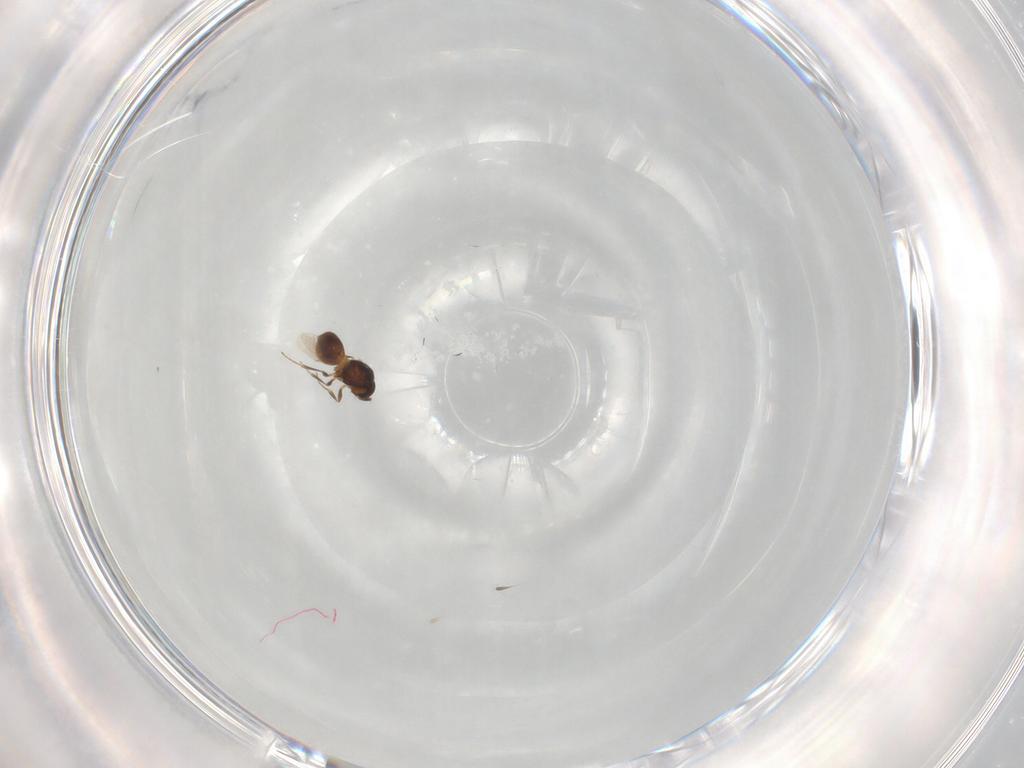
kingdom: Animalia
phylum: Arthropoda
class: Insecta
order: Hymenoptera
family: Scelionidae
